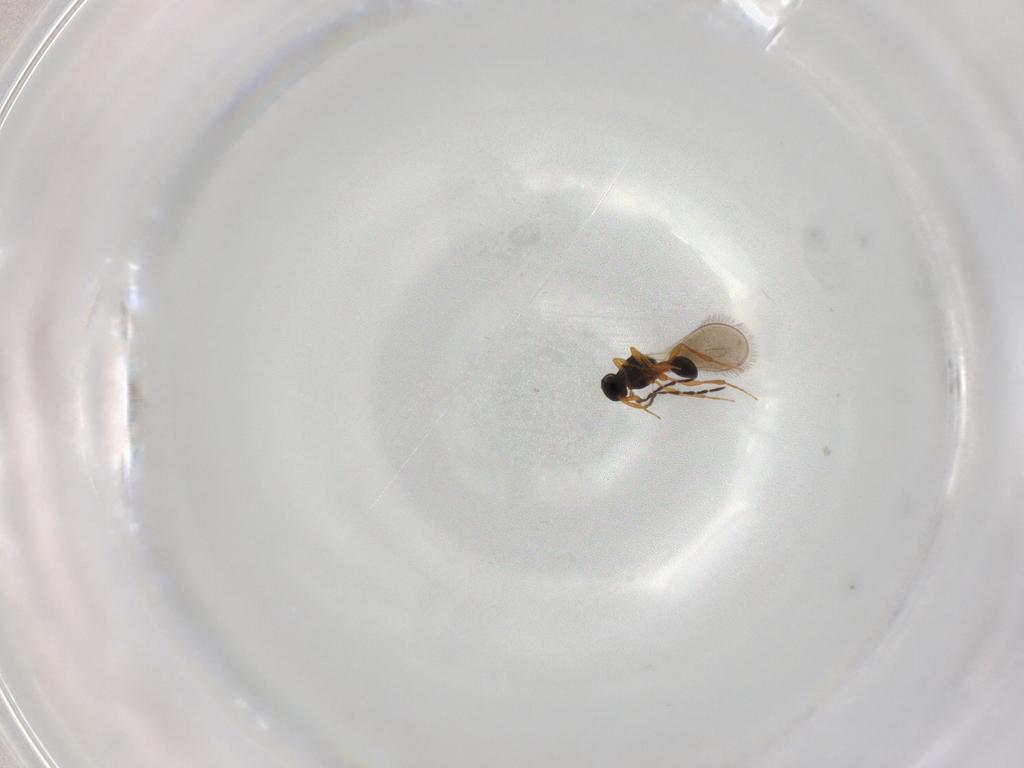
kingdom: Animalia
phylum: Arthropoda
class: Insecta
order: Hymenoptera
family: Platygastridae
